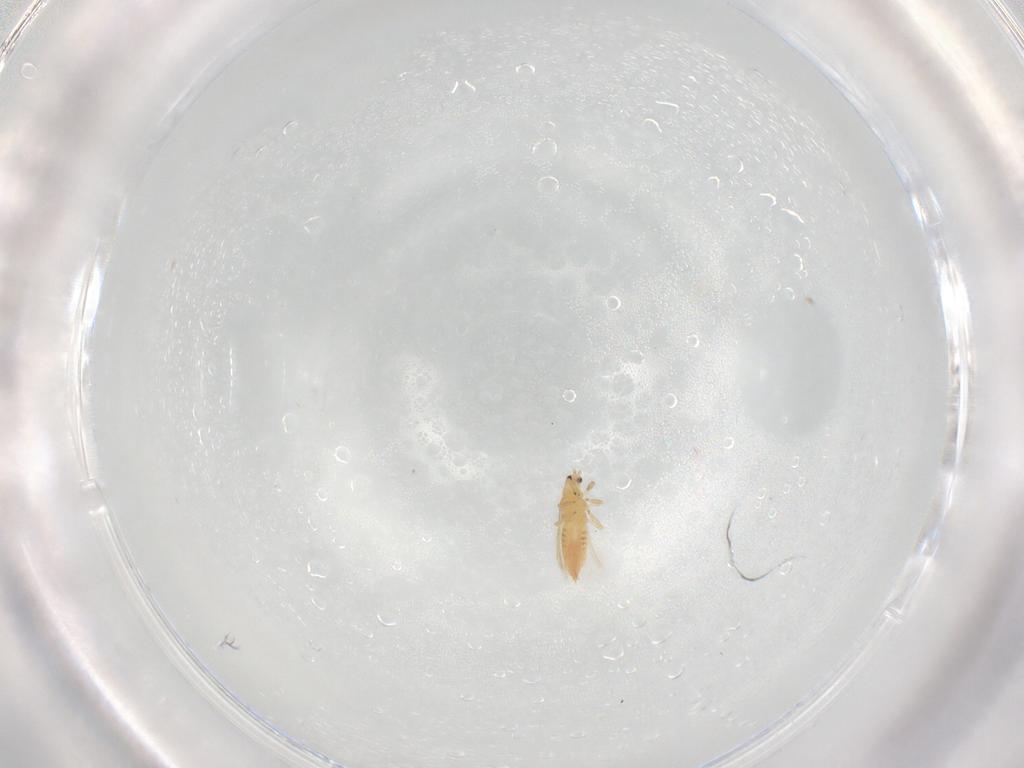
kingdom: Animalia
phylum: Arthropoda
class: Insecta
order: Thysanoptera
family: Thripidae
